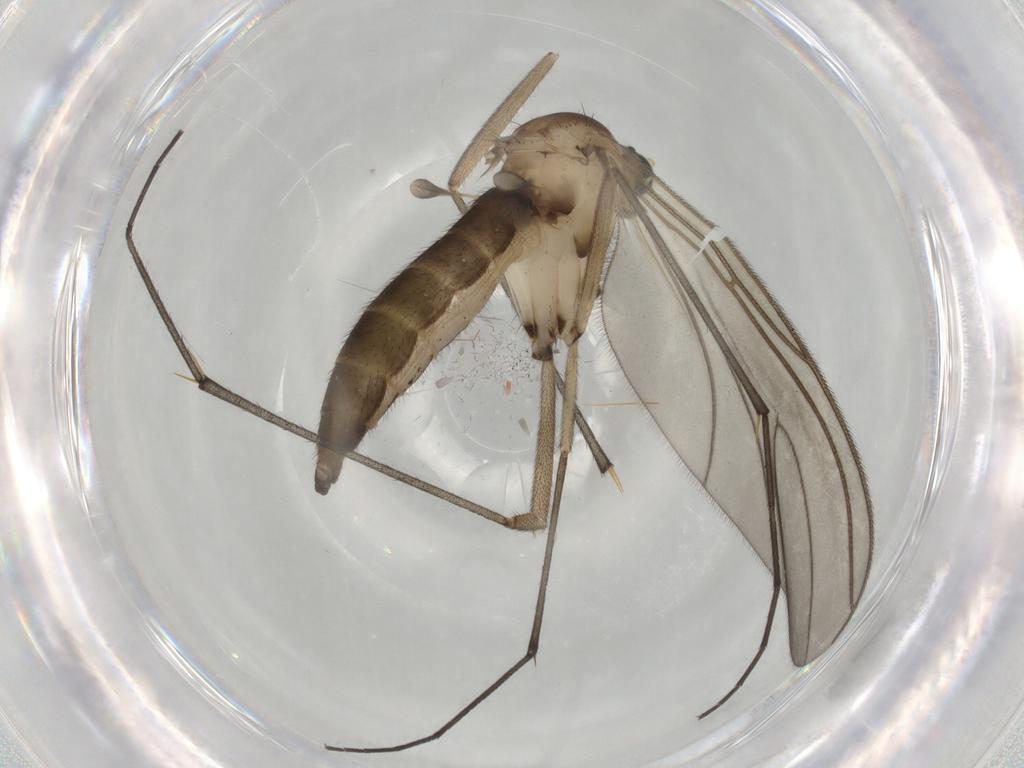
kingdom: Animalia
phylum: Arthropoda
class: Insecta
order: Diptera
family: Sciaridae
